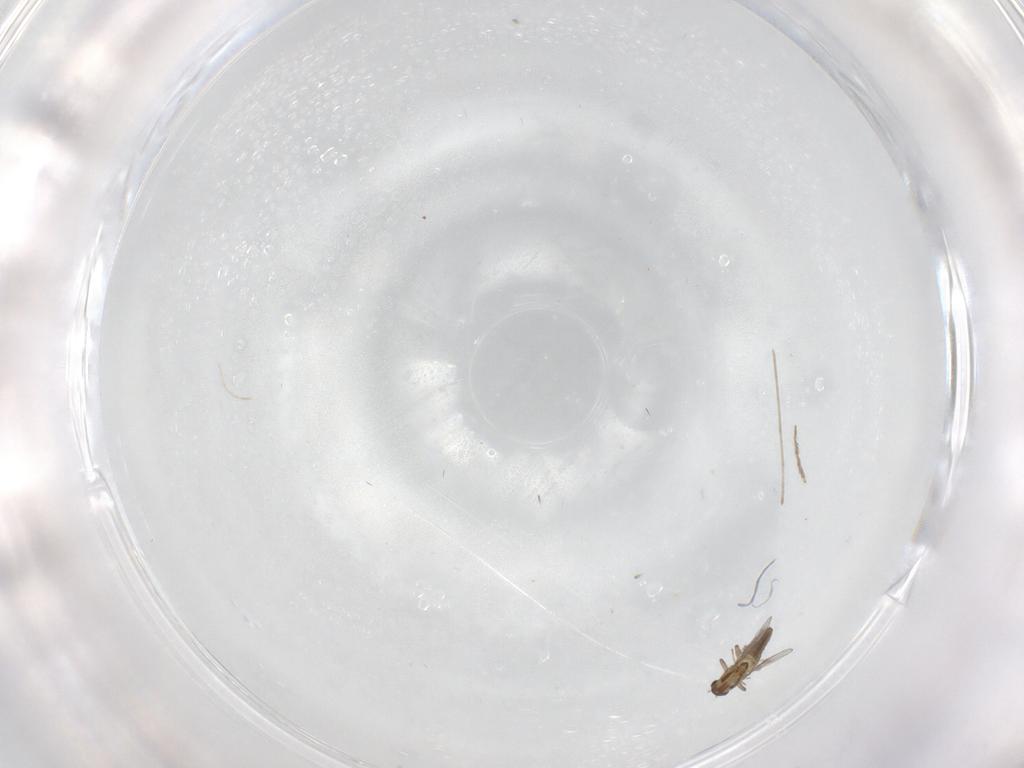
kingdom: Animalia
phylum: Arthropoda
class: Insecta
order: Diptera
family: Chironomidae
